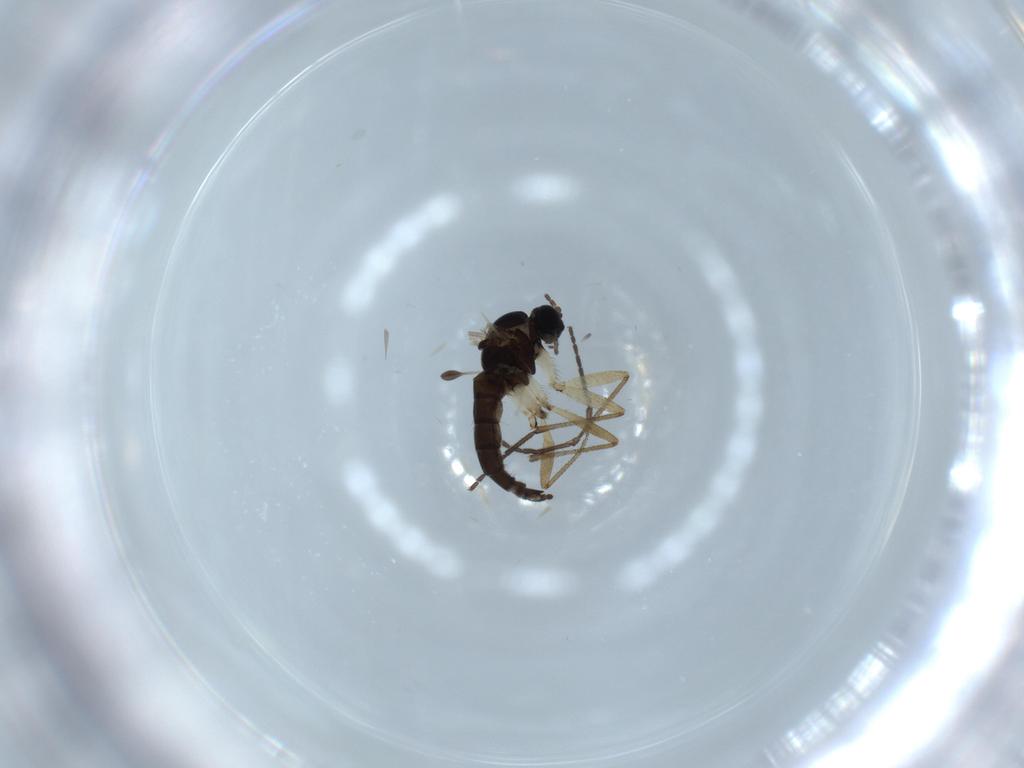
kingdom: Animalia
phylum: Arthropoda
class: Insecta
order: Diptera
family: Sciaridae
